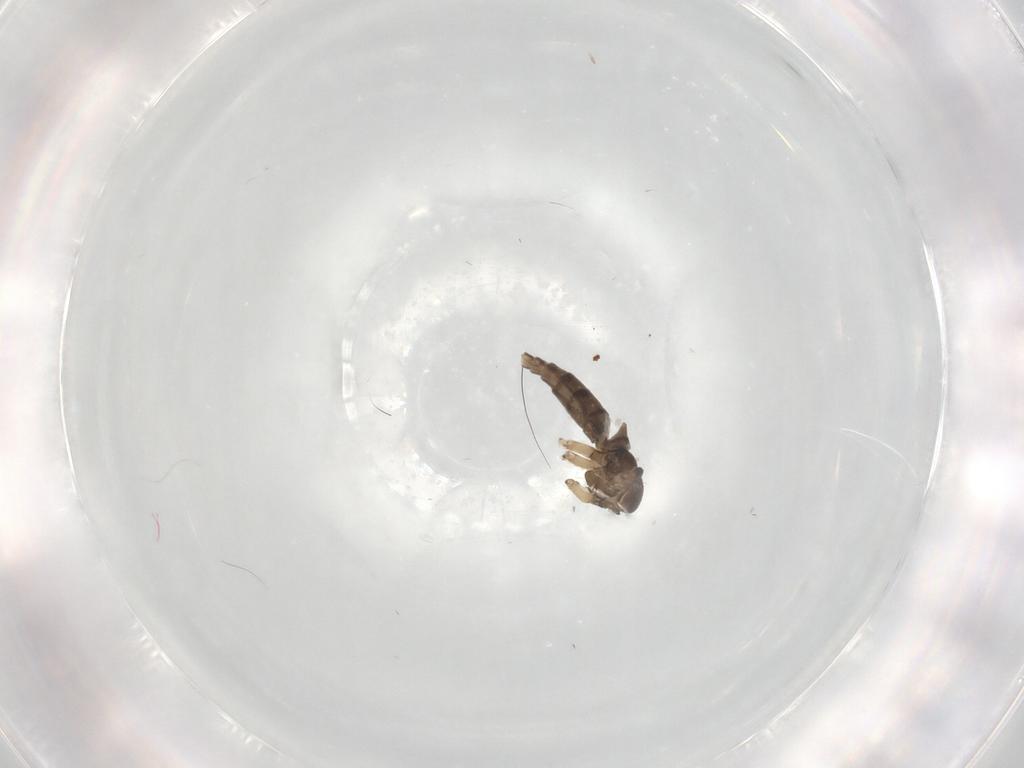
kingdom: Animalia
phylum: Arthropoda
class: Insecta
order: Diptera
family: Sciaridae
